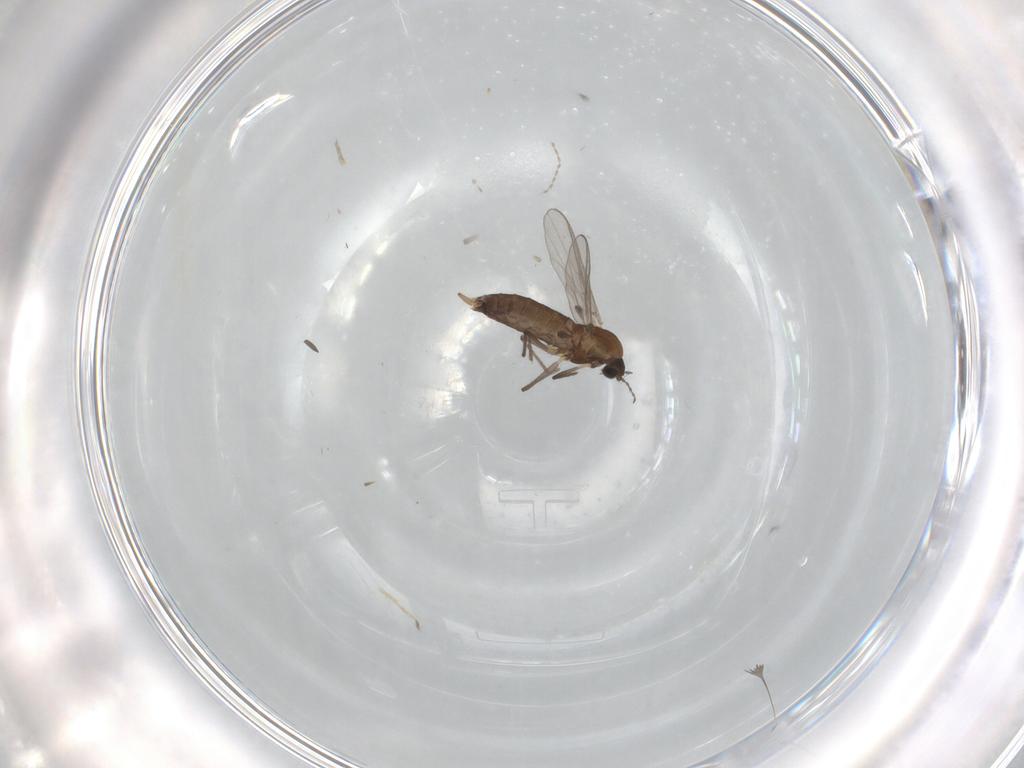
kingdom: Animalia
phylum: Arthropoda
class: Insecta
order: Diptera
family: Chironomidae
